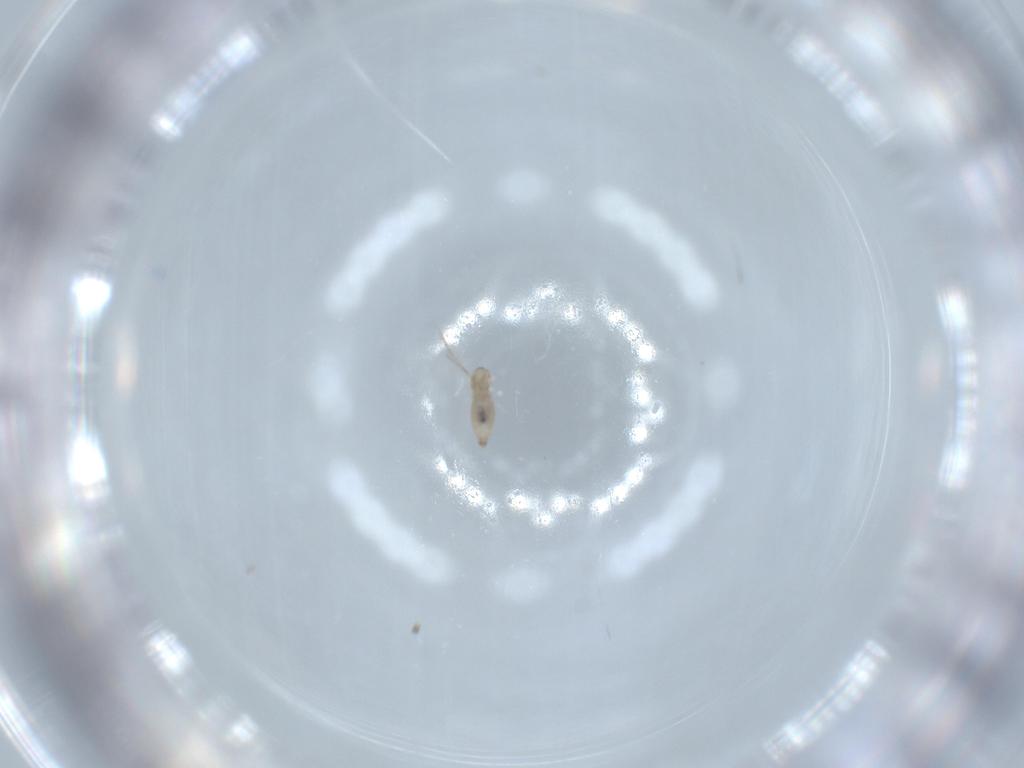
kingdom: Animalia
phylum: Arthropoda
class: Insecta
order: Diptera
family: Cecidomyiidae
